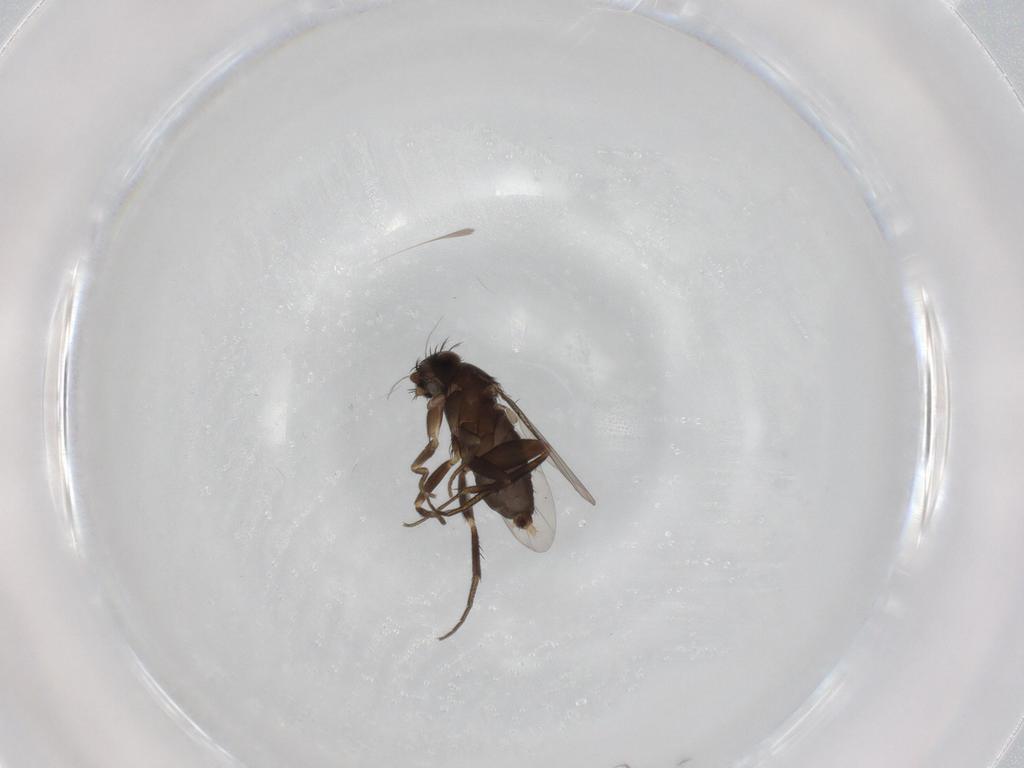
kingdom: Animalia
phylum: Arthropoda
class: Insecta
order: Diptera
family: Phoridae
